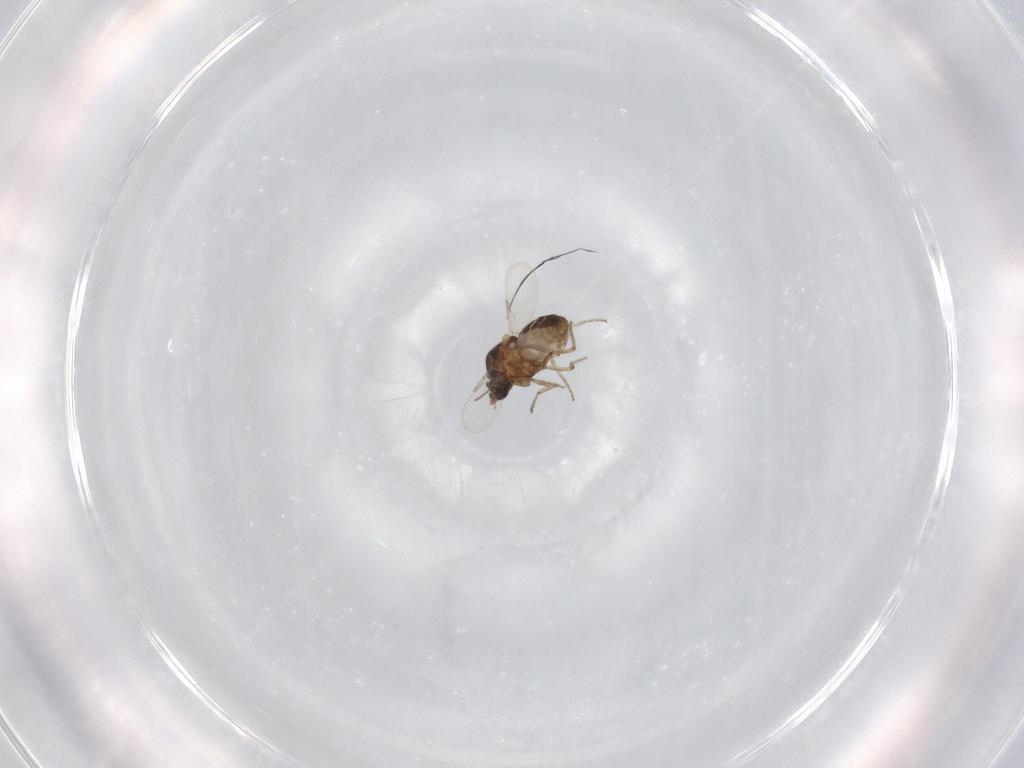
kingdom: Animalia
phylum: Arthropoda
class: Insecta
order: Diptera
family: Ceratopogonidae
